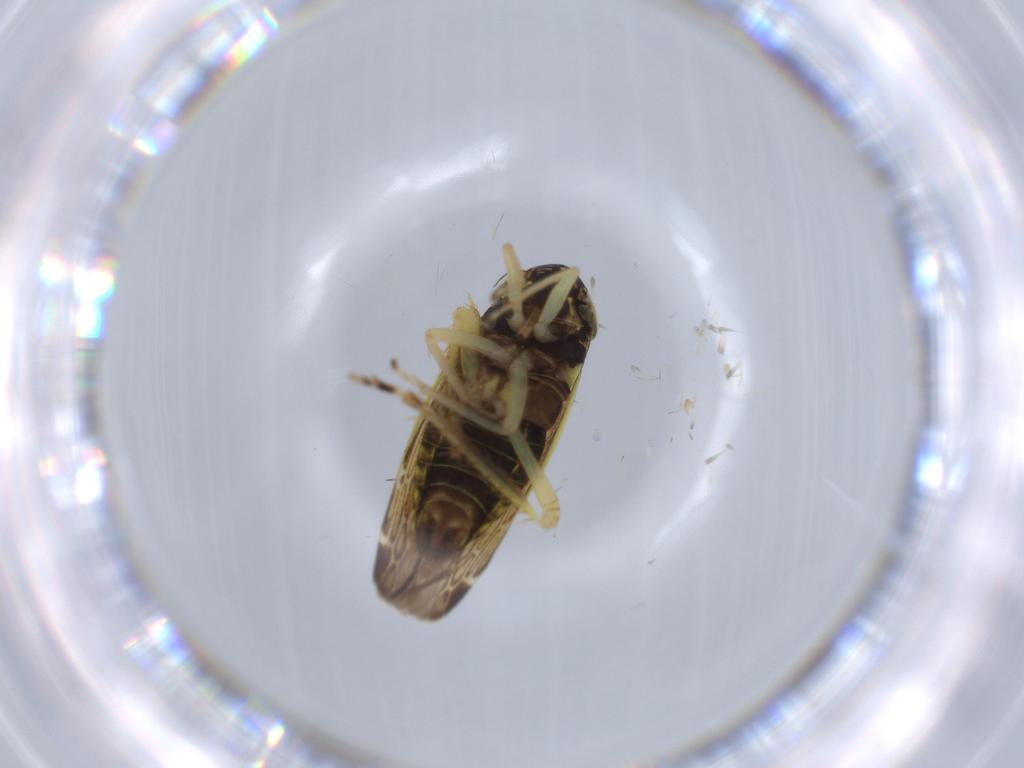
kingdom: Animalia
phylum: Arthropoda
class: Insecta
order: Hemiptera
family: Cicadellidae
